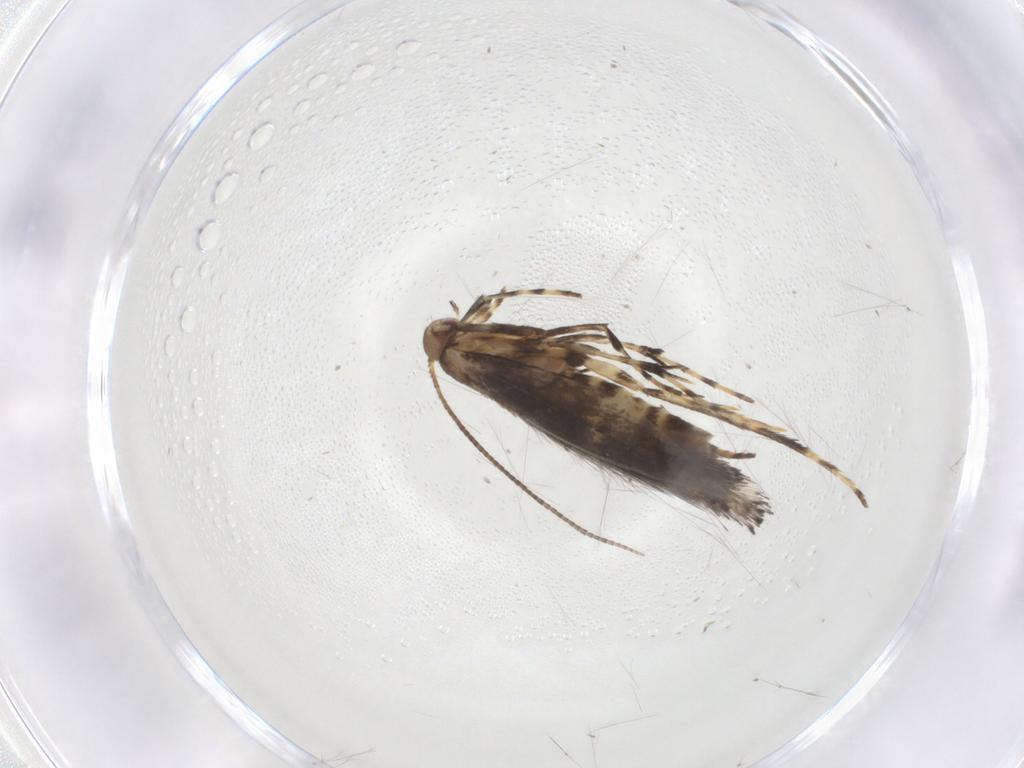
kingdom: Animalia
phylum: Arthropoda
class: Insecta
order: Lepidoptera
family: Gracillariidae
